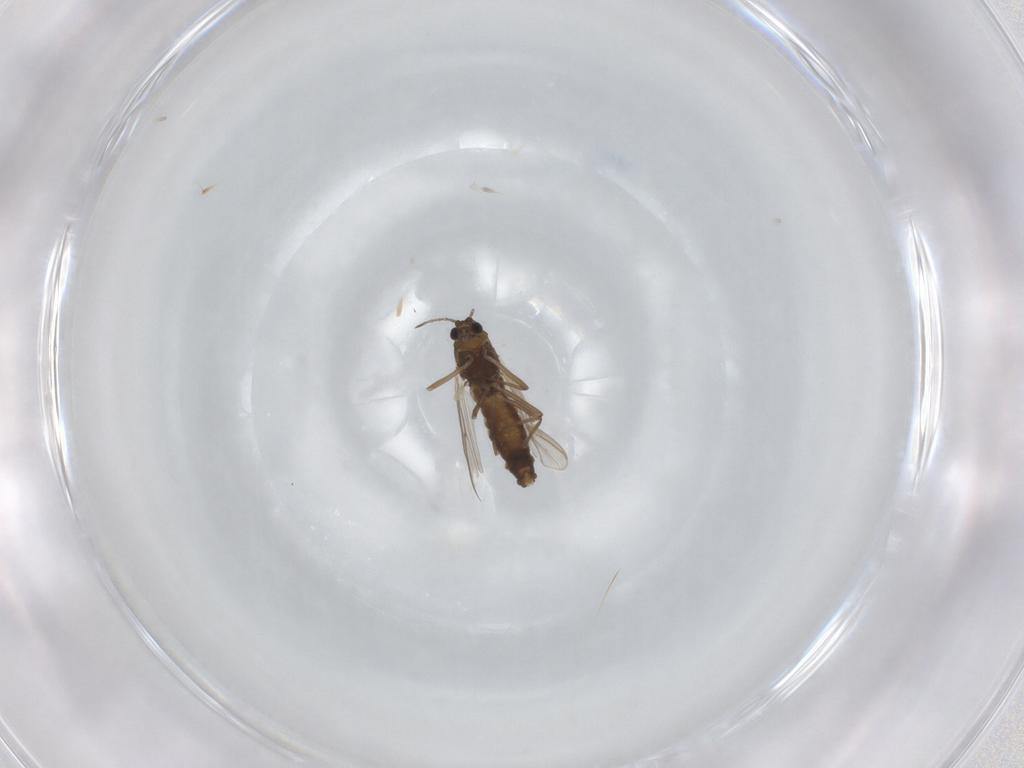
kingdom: Animalia
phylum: Arthropoda
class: Insecta
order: Diptera
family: Chironomidae
